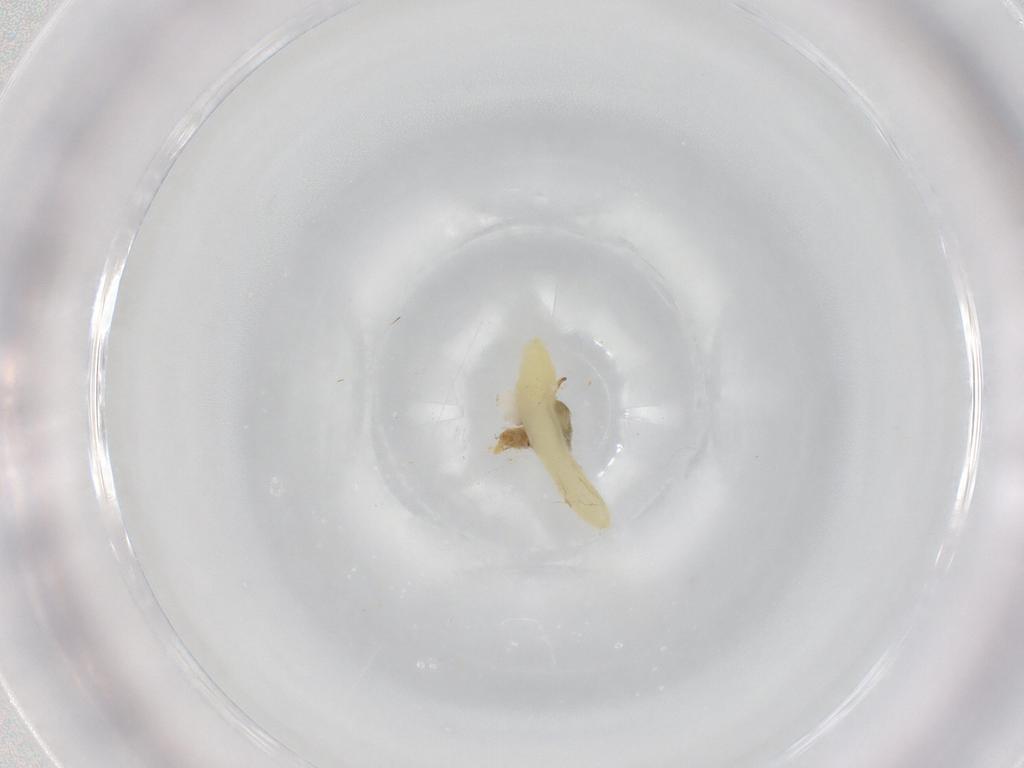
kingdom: Animalia
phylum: Arthropoda
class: Insecta
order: Diptera
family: Muscidae
